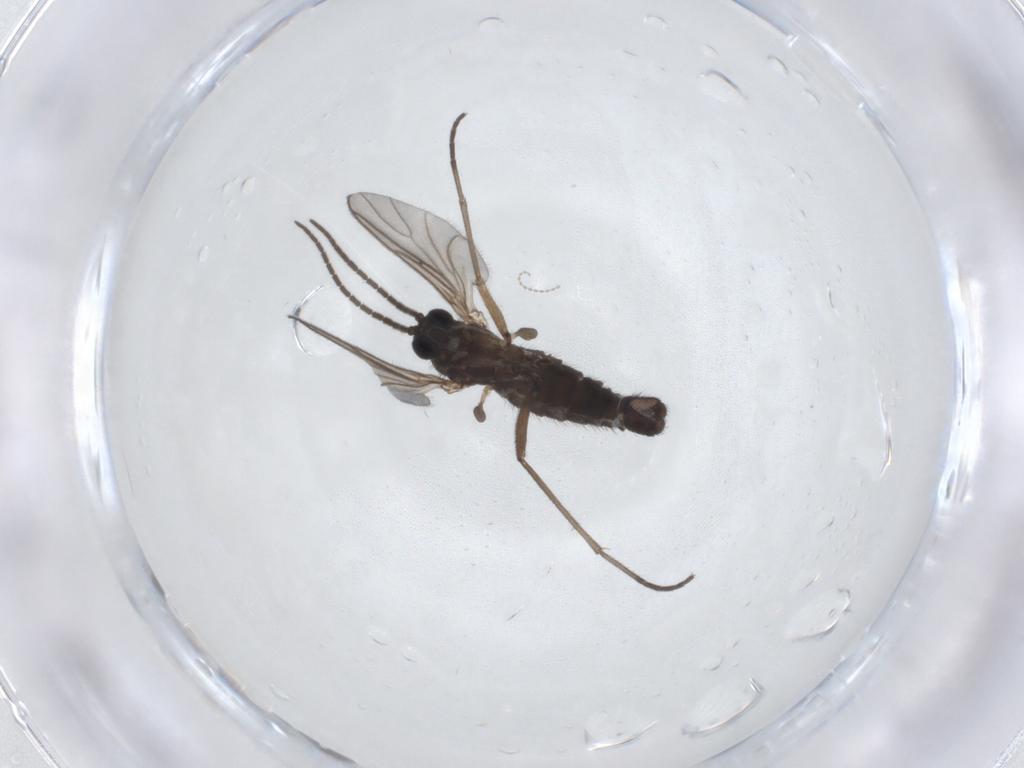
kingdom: Animalia
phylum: Arthropoda
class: Insecta
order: Diptera
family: Cecidomyiidae
